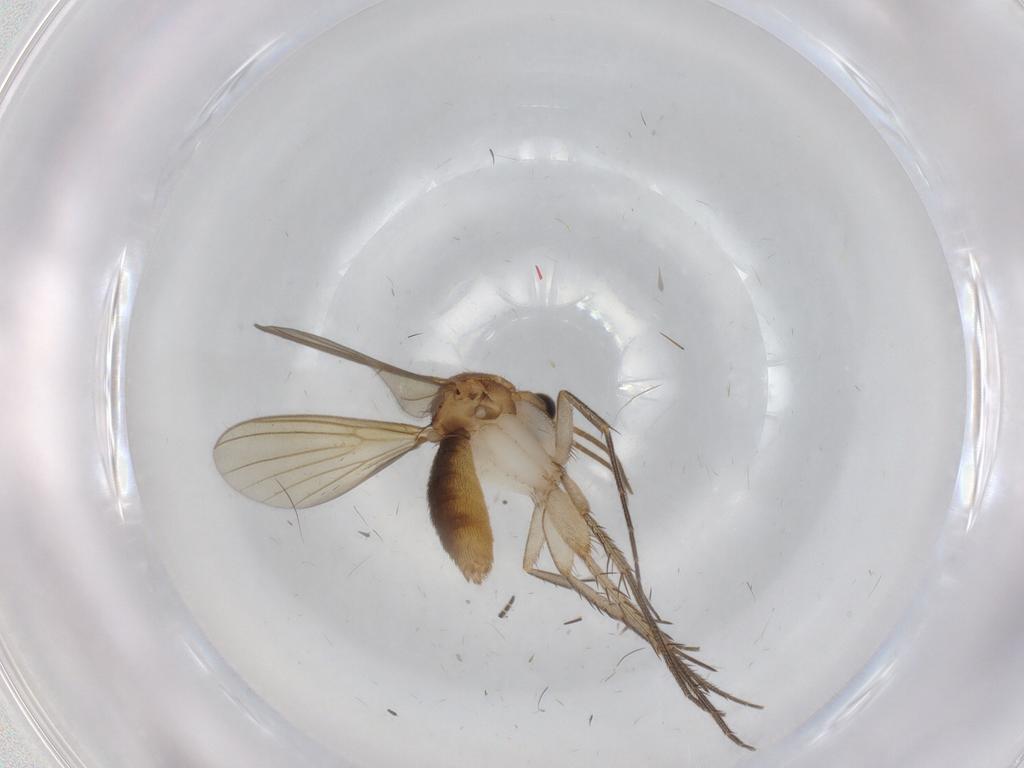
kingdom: Animalia
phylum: Arthropoda
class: Insecta
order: Diptera
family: Mycetophilidae
